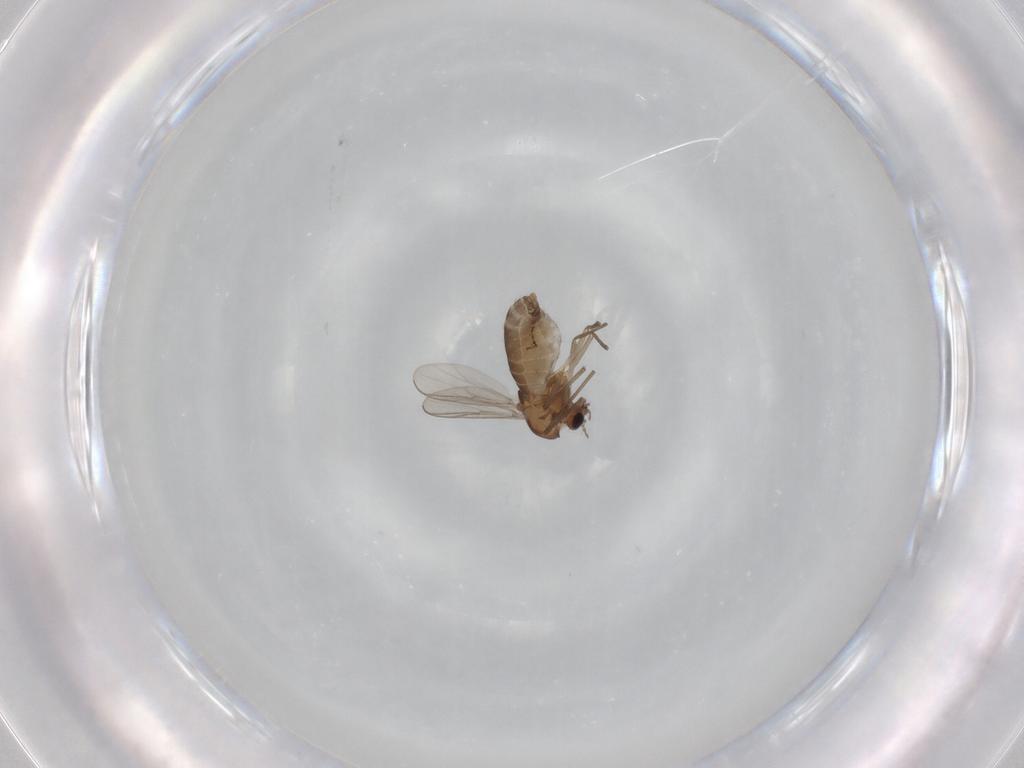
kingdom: Animalia
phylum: Arthropoda
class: Insecta
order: Diptera
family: Chironomidae
